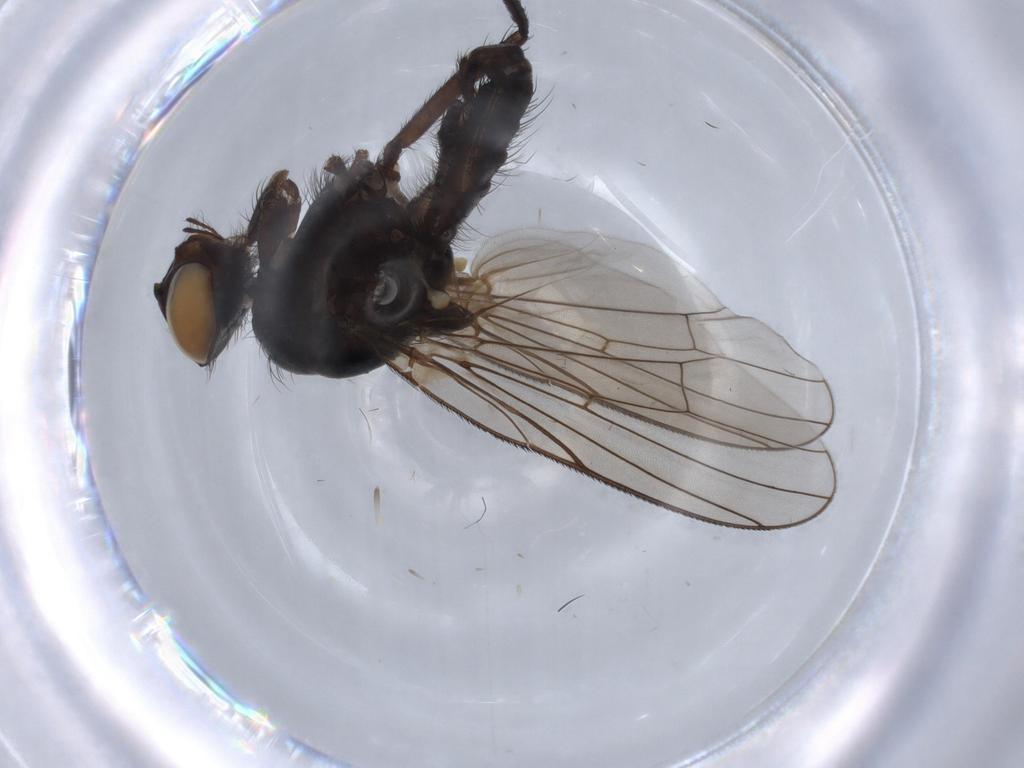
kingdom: Animalia
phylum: Arthropoda
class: Insecta
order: Diptera
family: Anthomyiidae
